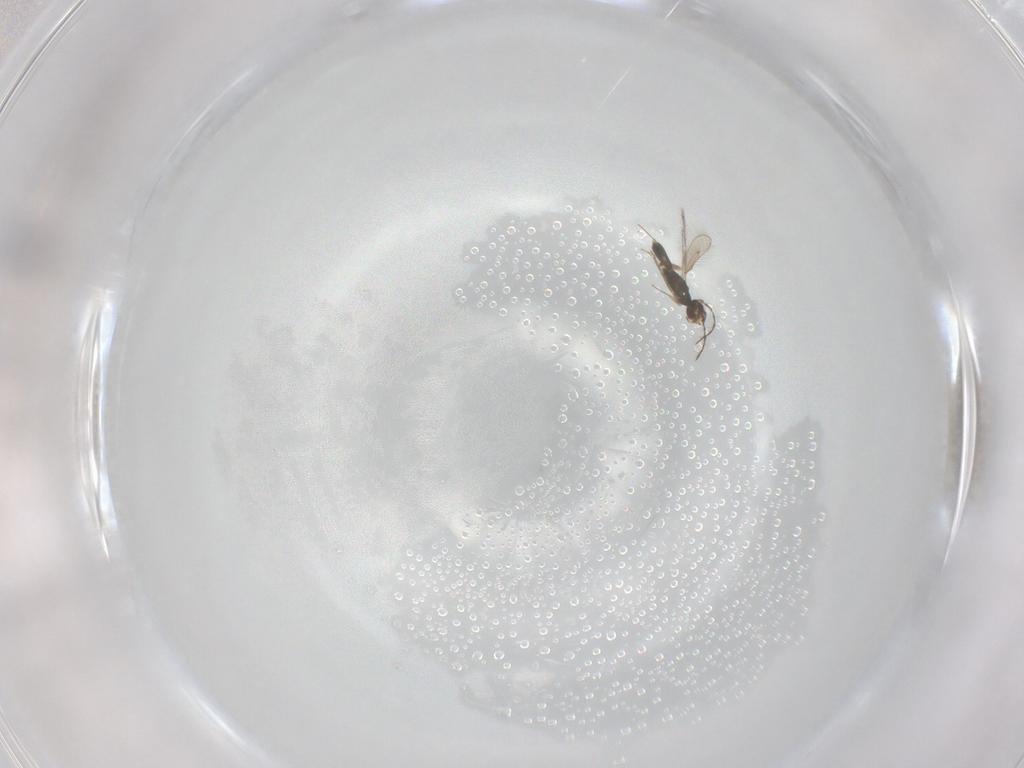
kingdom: Animalia
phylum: Arthropoda
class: Insecta
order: Hymenoptera
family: Pteromalidae
